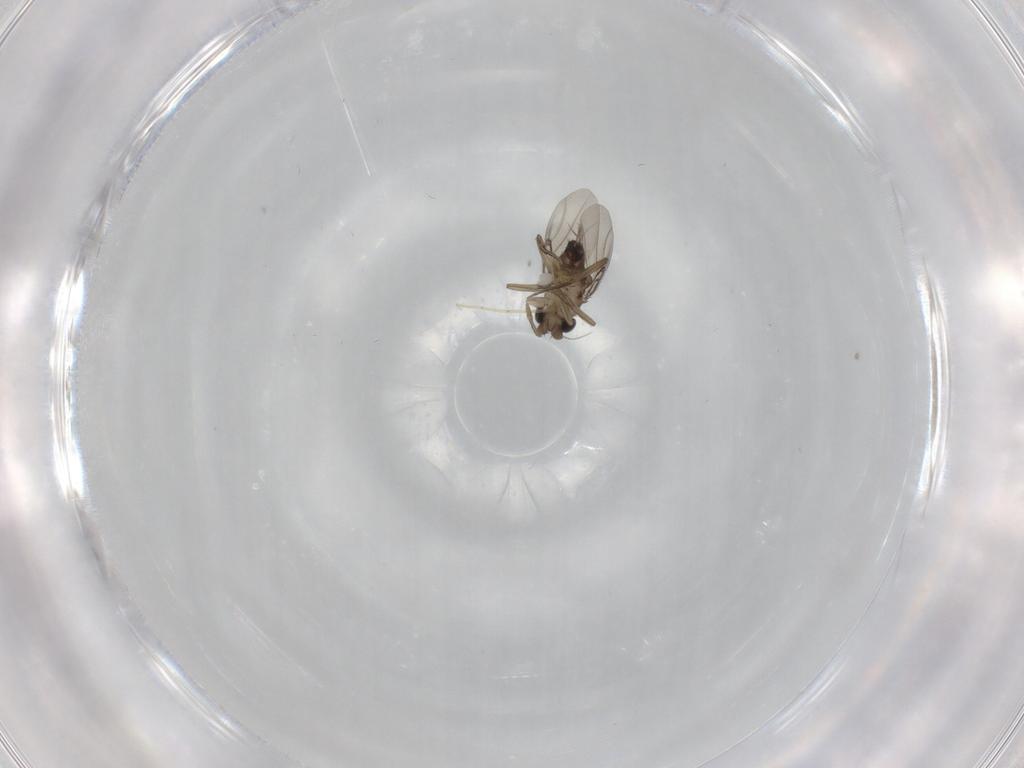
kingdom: Animalia
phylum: Arthropoda
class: Insecta
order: Diptera
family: Phoridae
